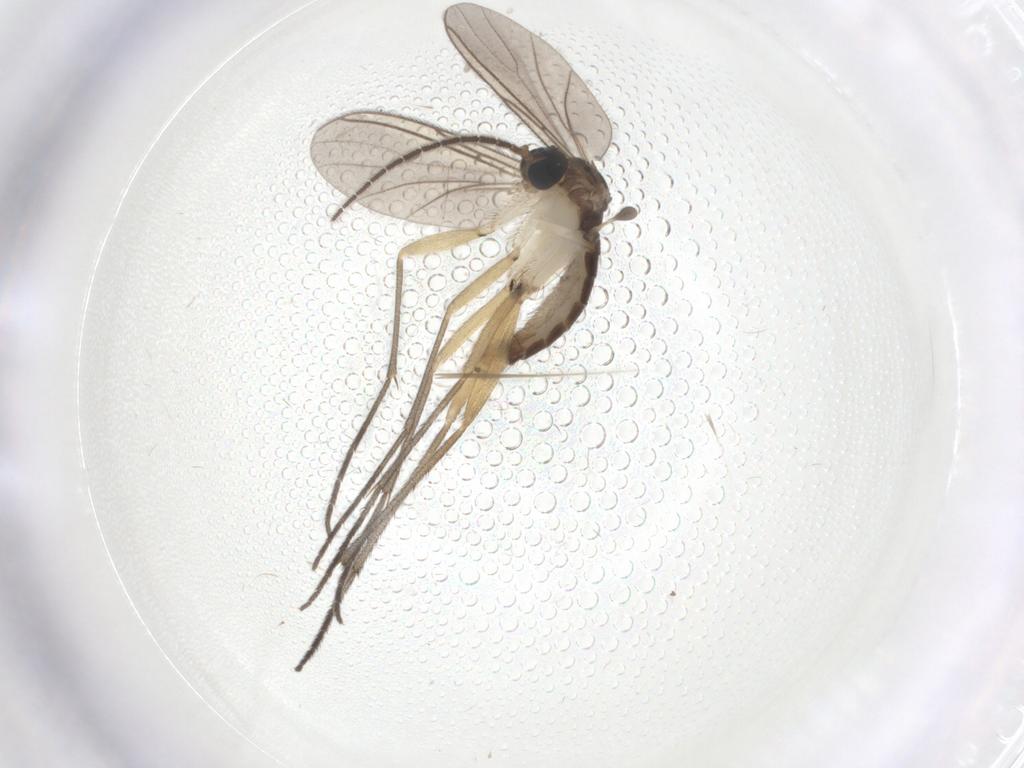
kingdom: Animalia
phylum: Arthropoda
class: Insecta
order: Diptera
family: Sciaridae
